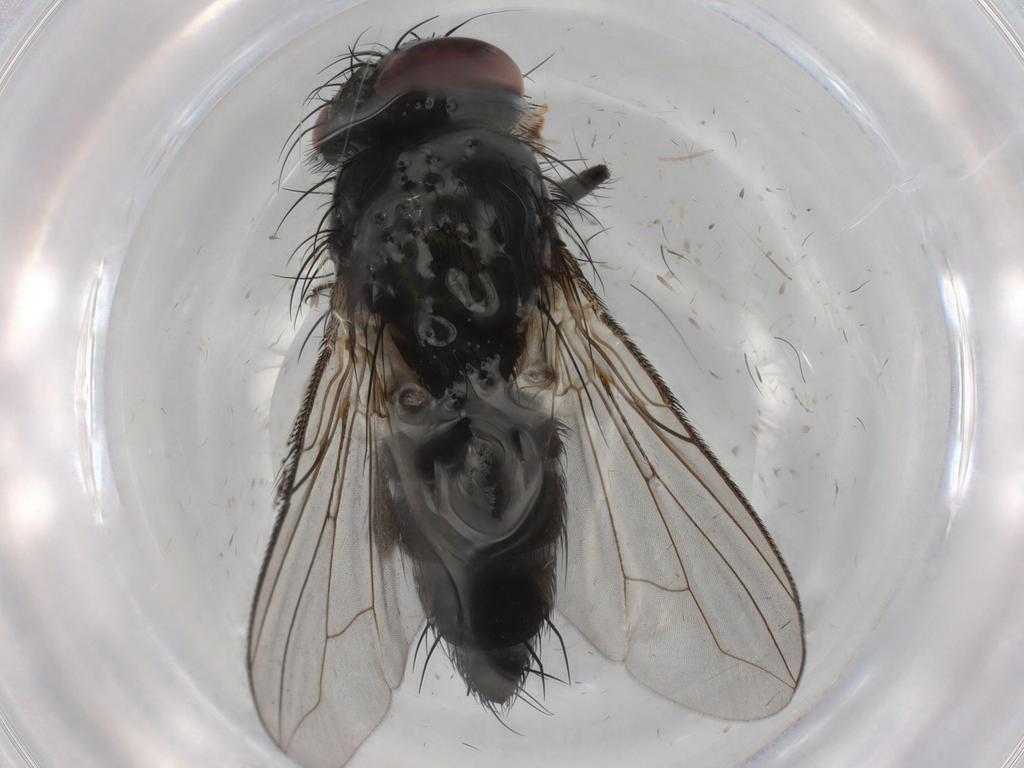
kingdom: Animalia
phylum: Arthropoda
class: Insecta
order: Diptera
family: Tachinidae
